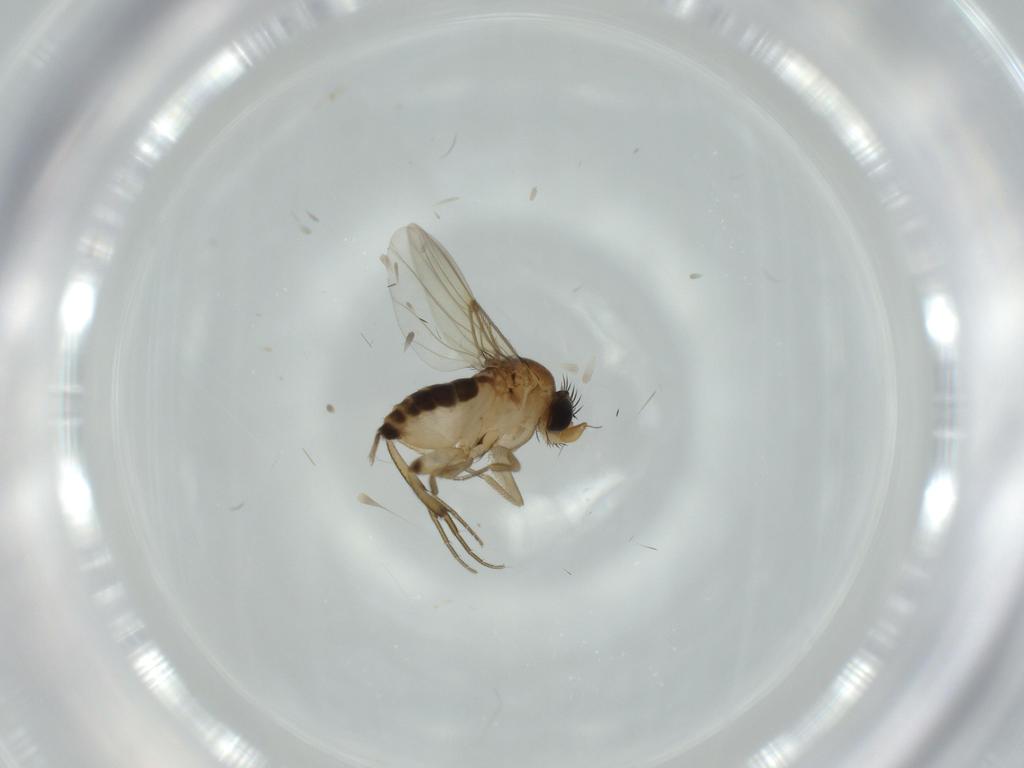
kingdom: Animalia
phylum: Arthropoda
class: Insecta
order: Diptera
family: Phoridae
